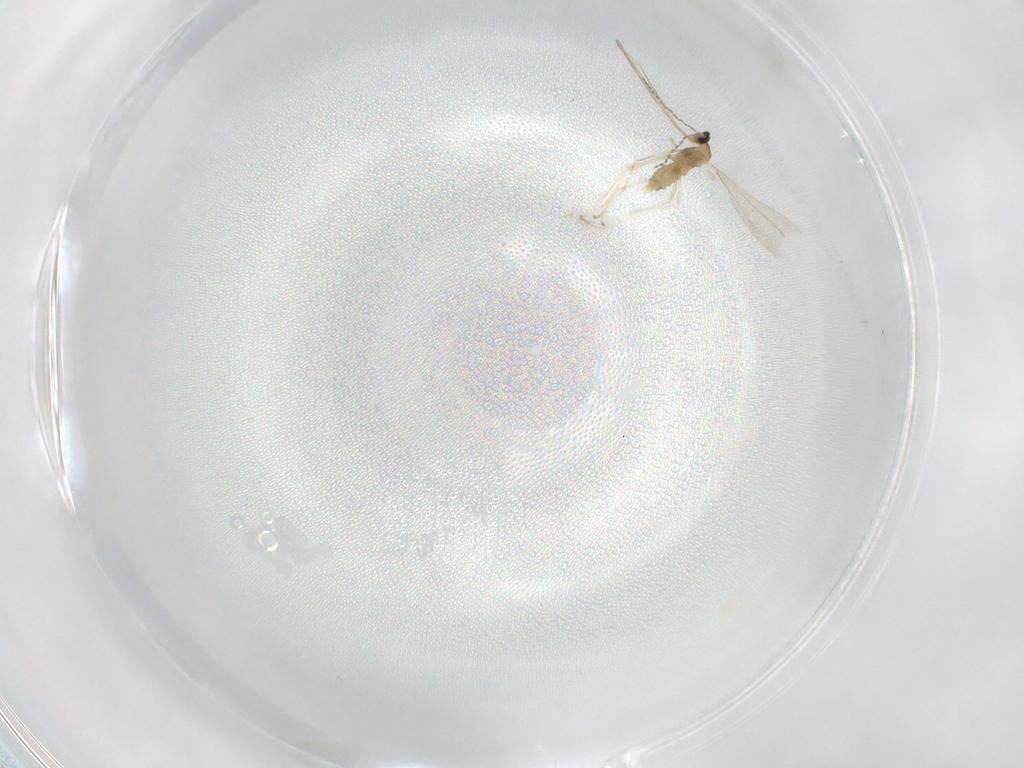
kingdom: Animalia
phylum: Arthropoda
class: Insecta
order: Diptera
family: Cecidomyiidae
